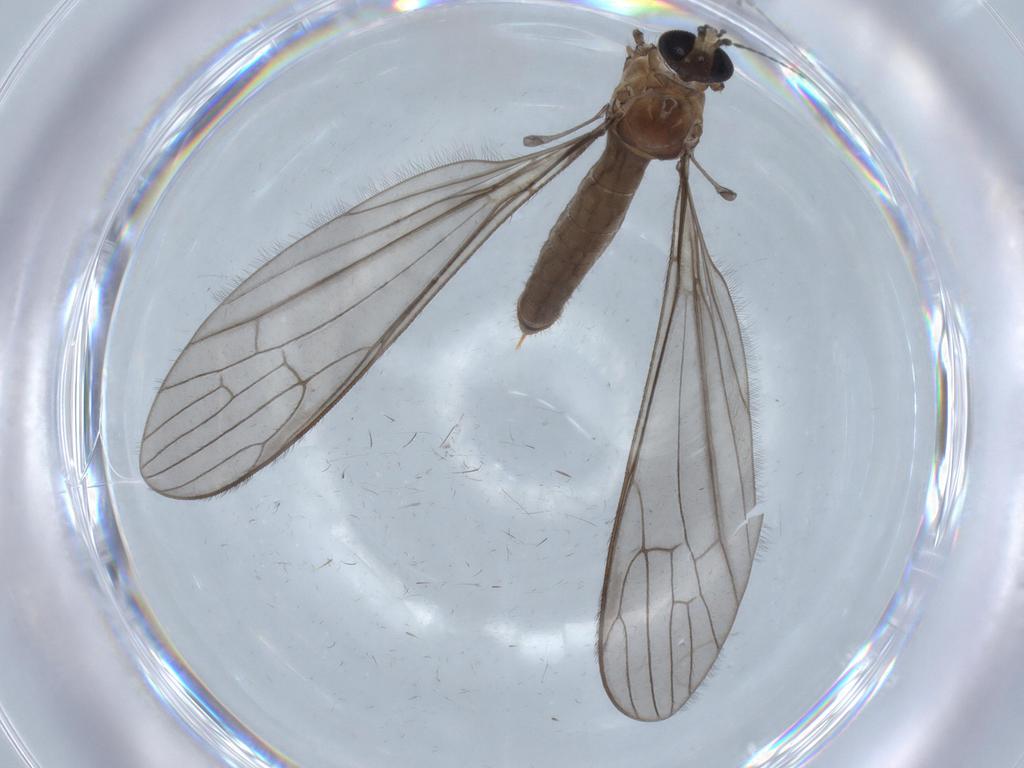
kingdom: Animalia
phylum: Arthropoda
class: Insecta
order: Diptera
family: Limoniidae
